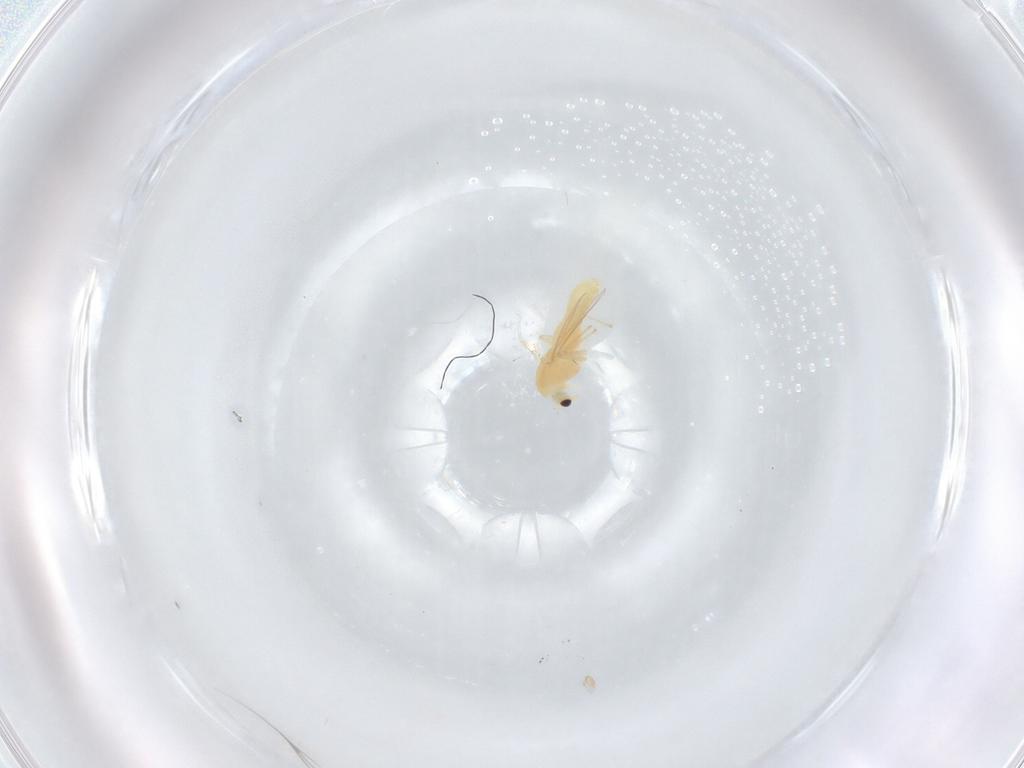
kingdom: Animalia
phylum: Arthropoda
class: Insecta
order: Diptera
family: Chironomidae
